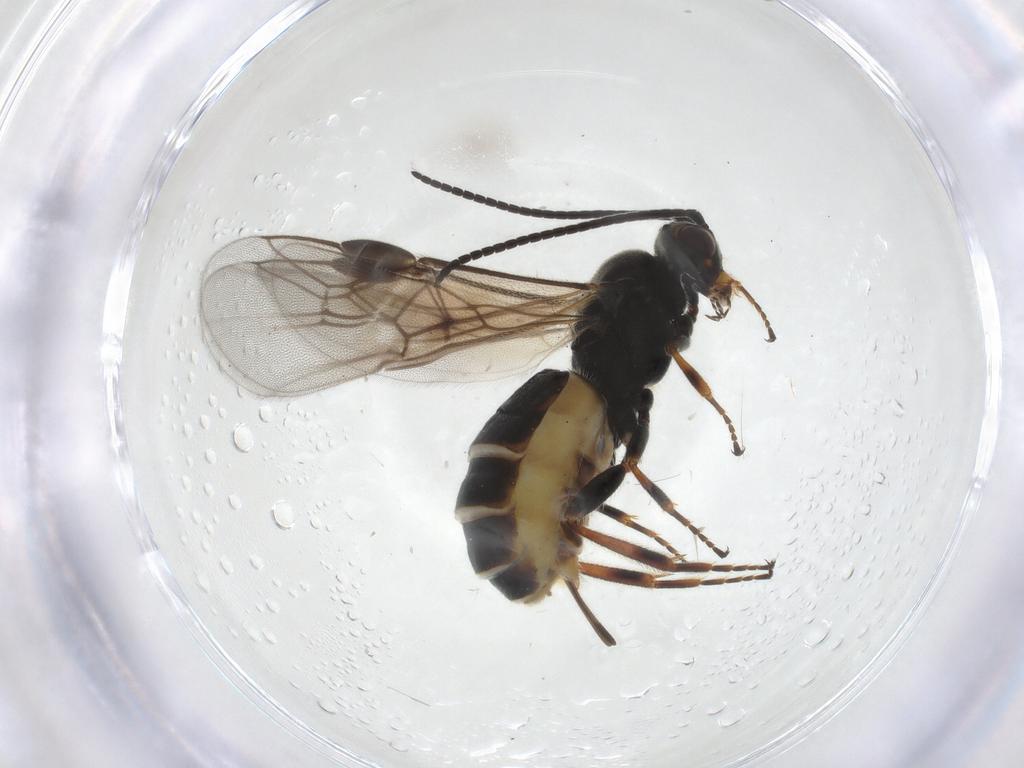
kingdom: Animalia
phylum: Arthropoda
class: Insecta
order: Hymenoptera
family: Braconidae
